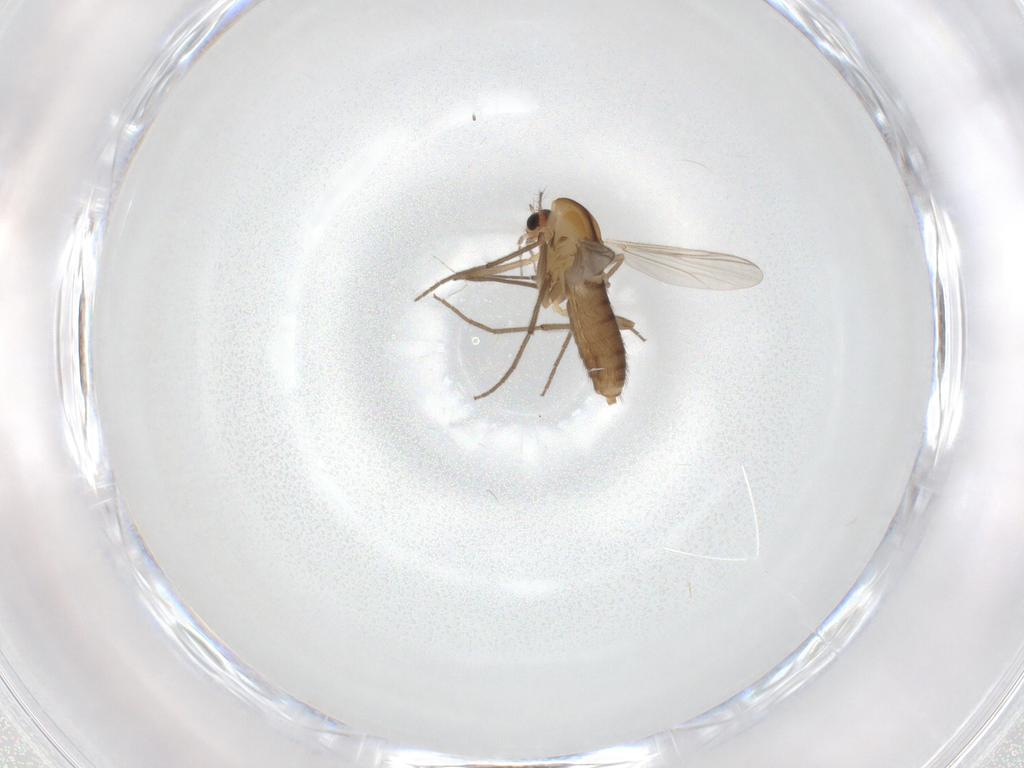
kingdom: Animalia
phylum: Arthropoda
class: Insecta
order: Diptera
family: Chironomidae
